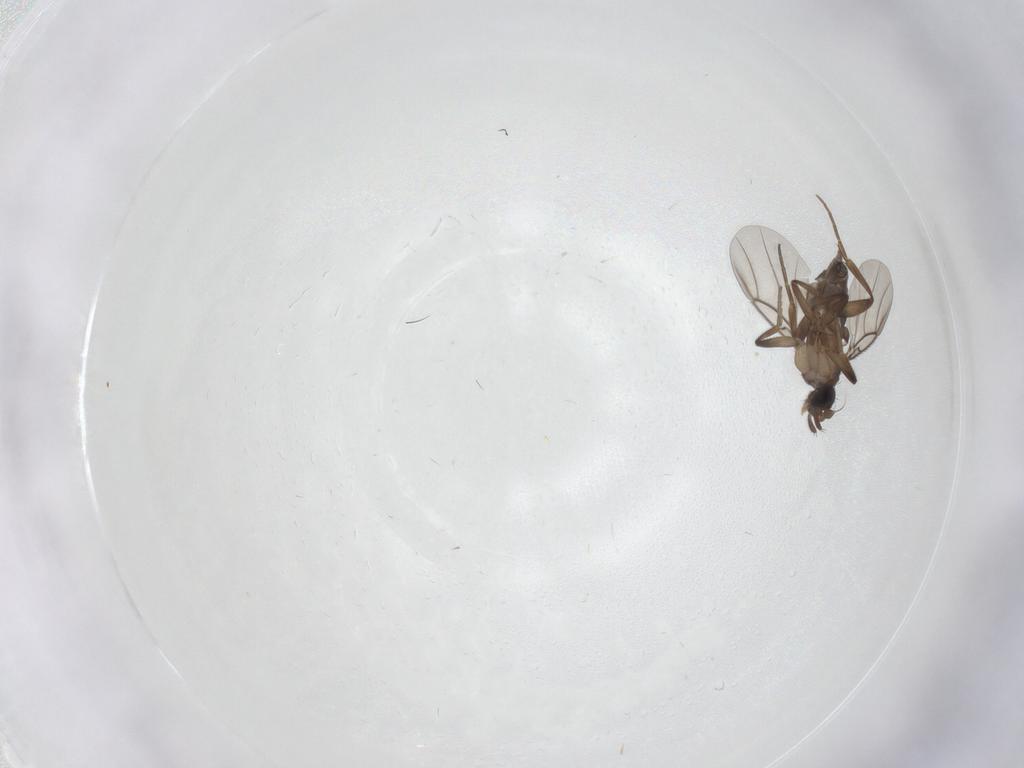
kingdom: Animalia
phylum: Arthropoda
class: Insecta
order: Diptera
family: Phoridae
